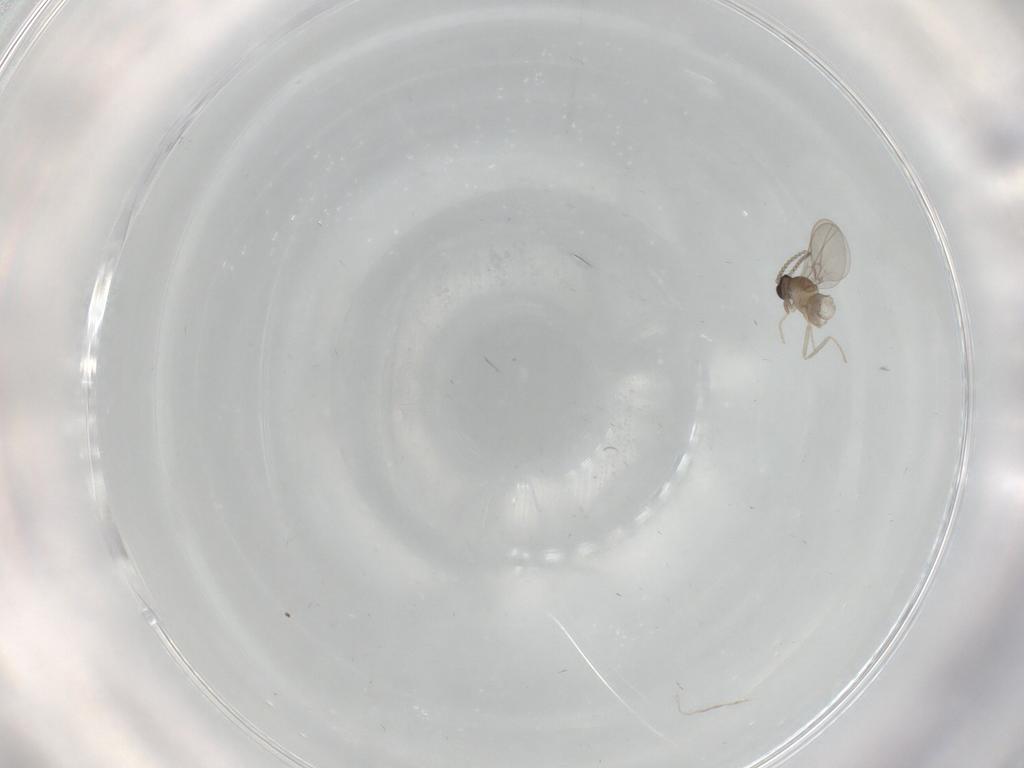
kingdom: Animalia
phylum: Arthropoda
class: Insecta
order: Diptera
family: Cecidomyiidae
